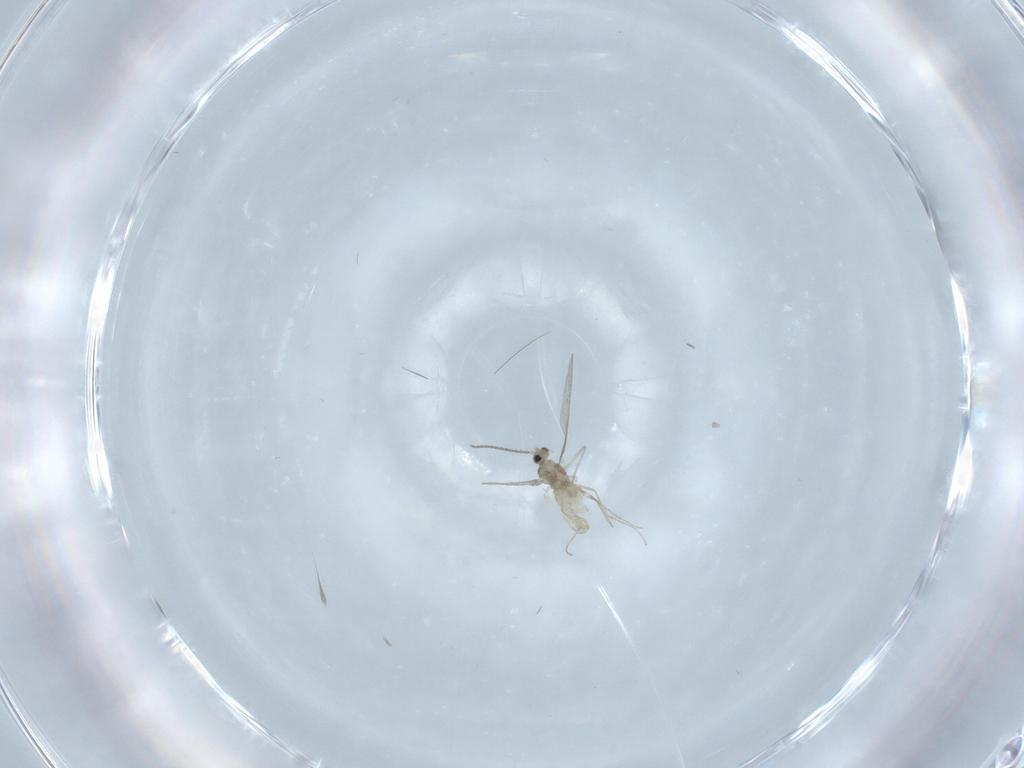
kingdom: Animalia
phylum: Arthropoda
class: Insecta
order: Diptera
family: Cecidomyiidae
